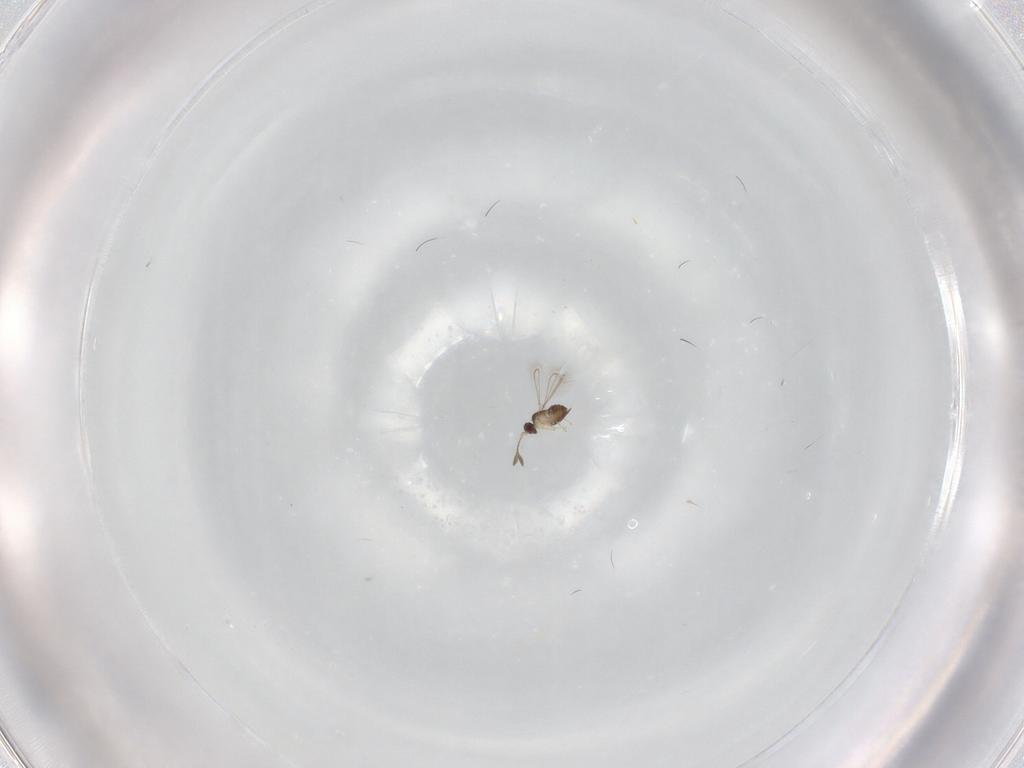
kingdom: Animalia
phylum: Arthropoda
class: Insecta
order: Hymenoptera
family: Mymaridae
